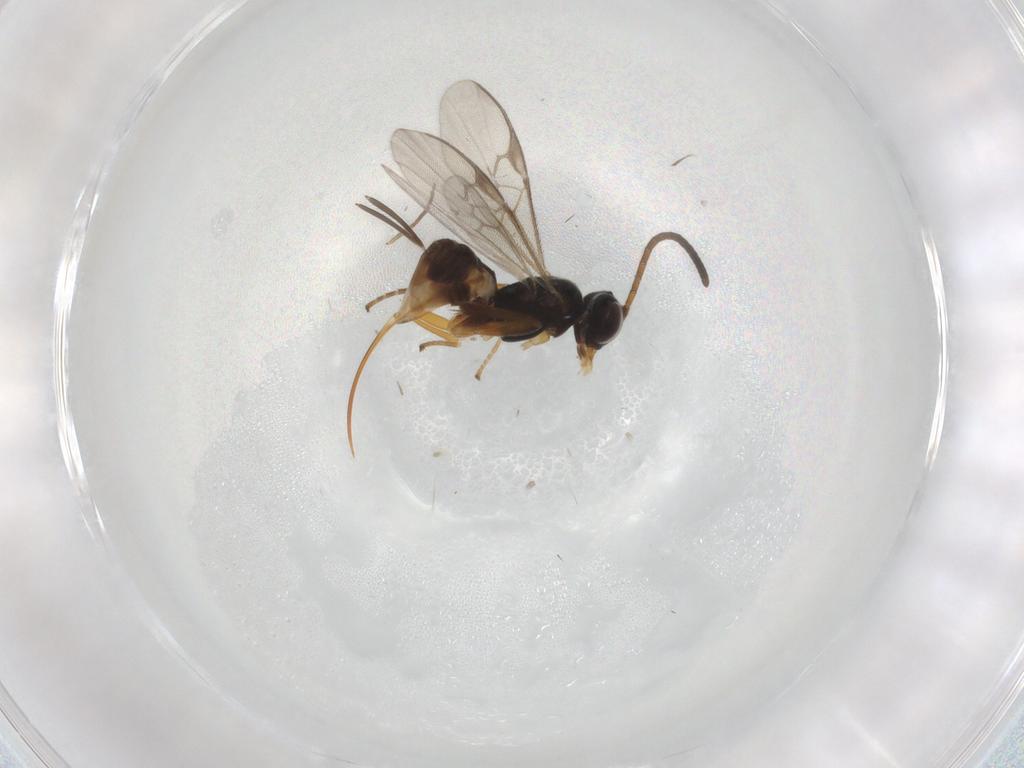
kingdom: Animalia
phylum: Arthropoda
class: Insecta
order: Hymenoptera
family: Braconidae
